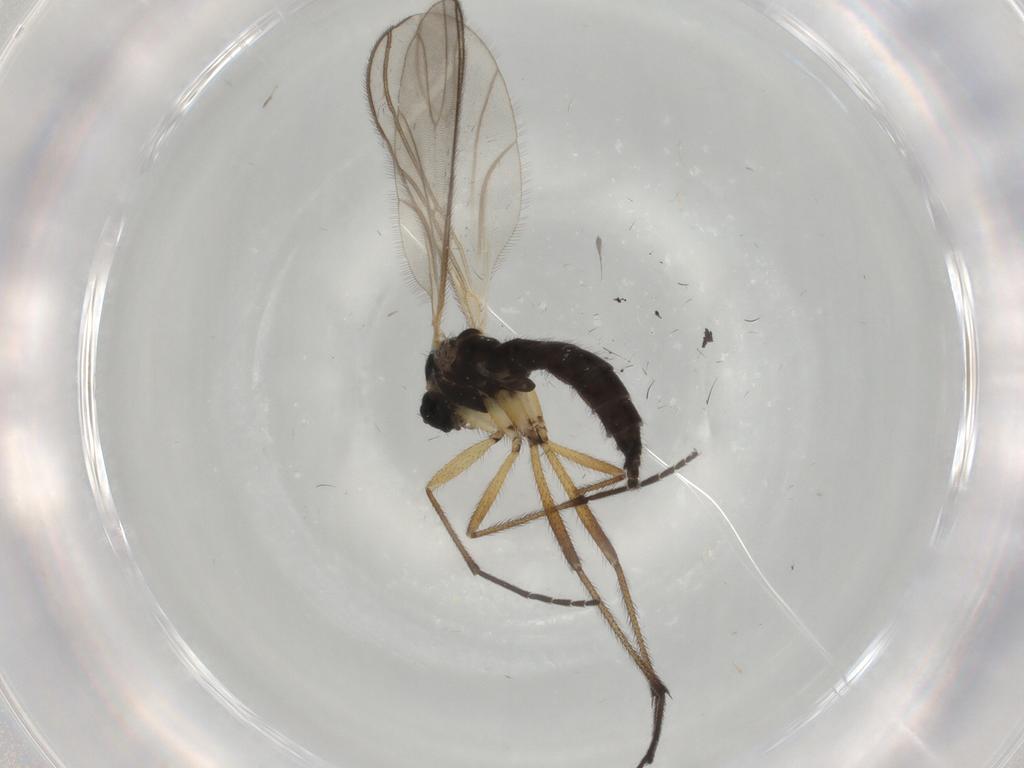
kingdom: Animalia
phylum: Arthropoda
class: Insecta
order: Diptera
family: Sciaridae
